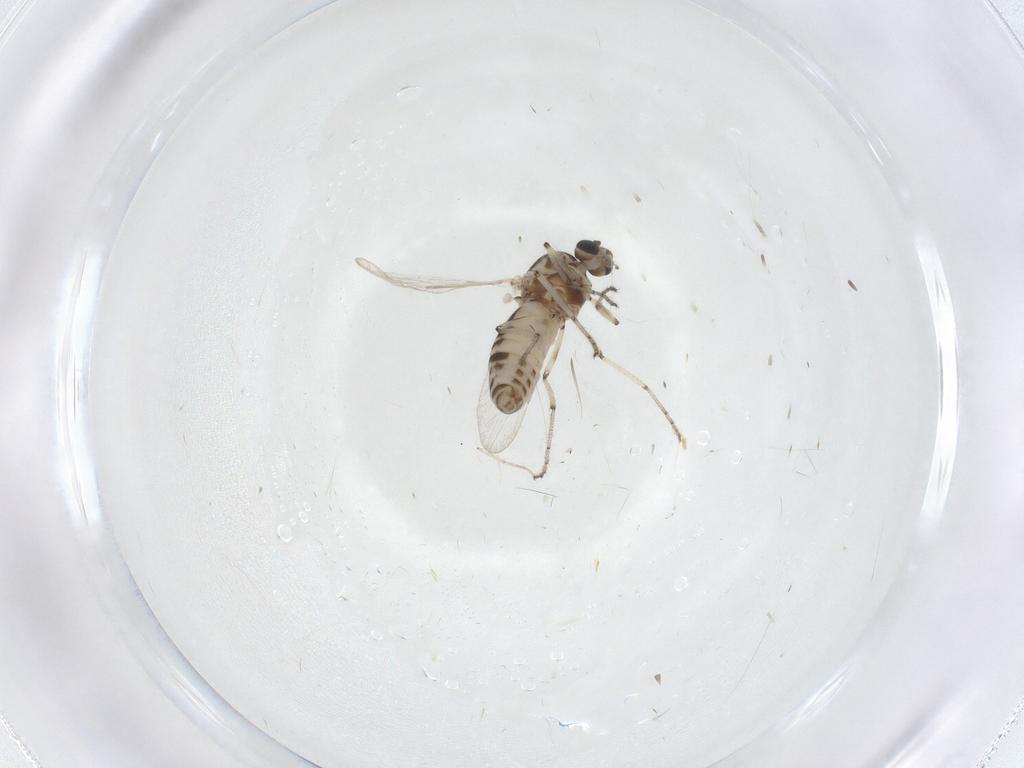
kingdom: Animalia
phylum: Arthropoda
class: Insecta
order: Diptera
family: Ceratopogonidae
